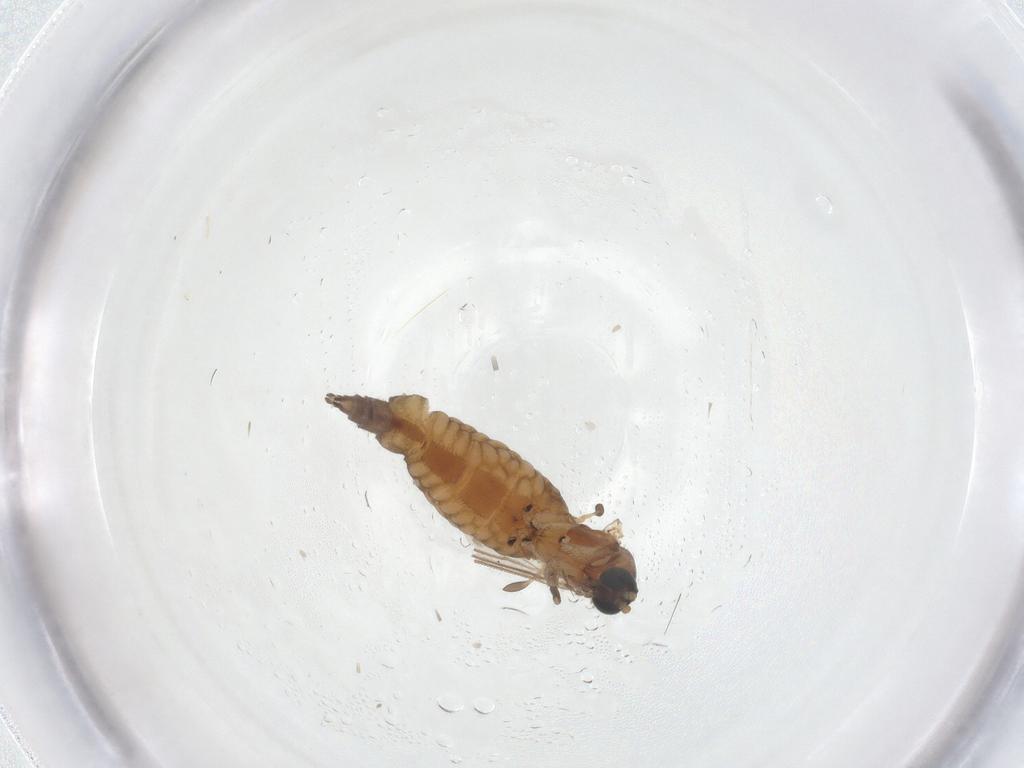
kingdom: Animalia
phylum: Arthropoda
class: Insecta
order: Diptera
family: Sciaridae
